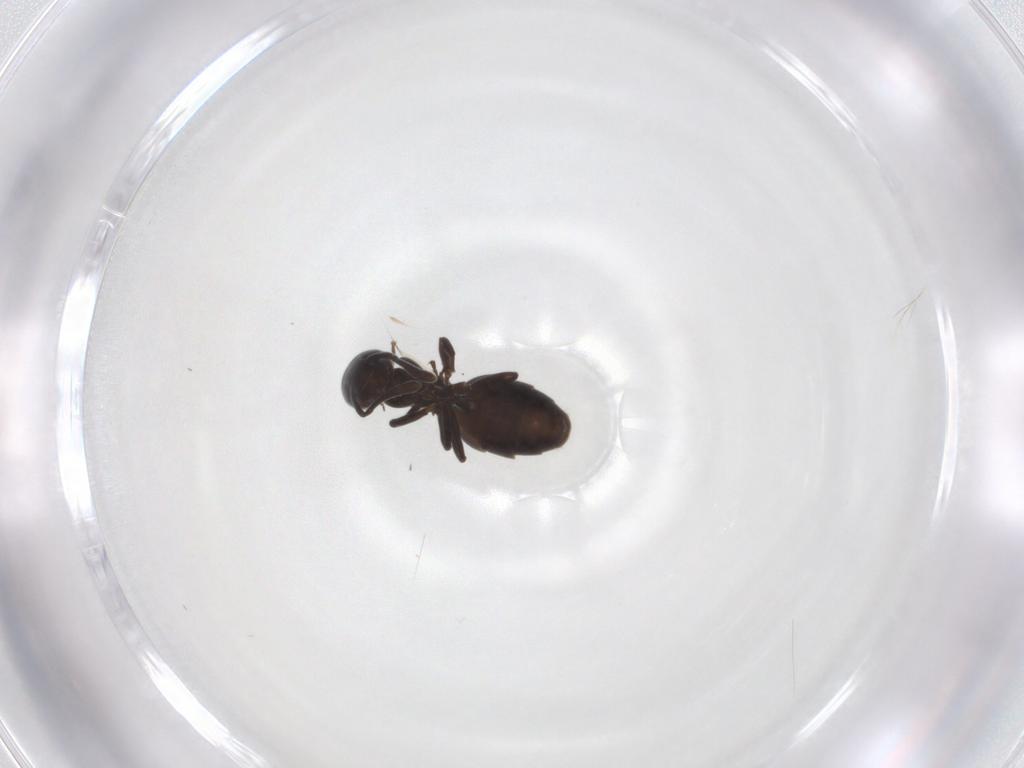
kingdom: Animalia
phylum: Arthropoda
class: Insecta
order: Hymenoptera
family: Formicidae
